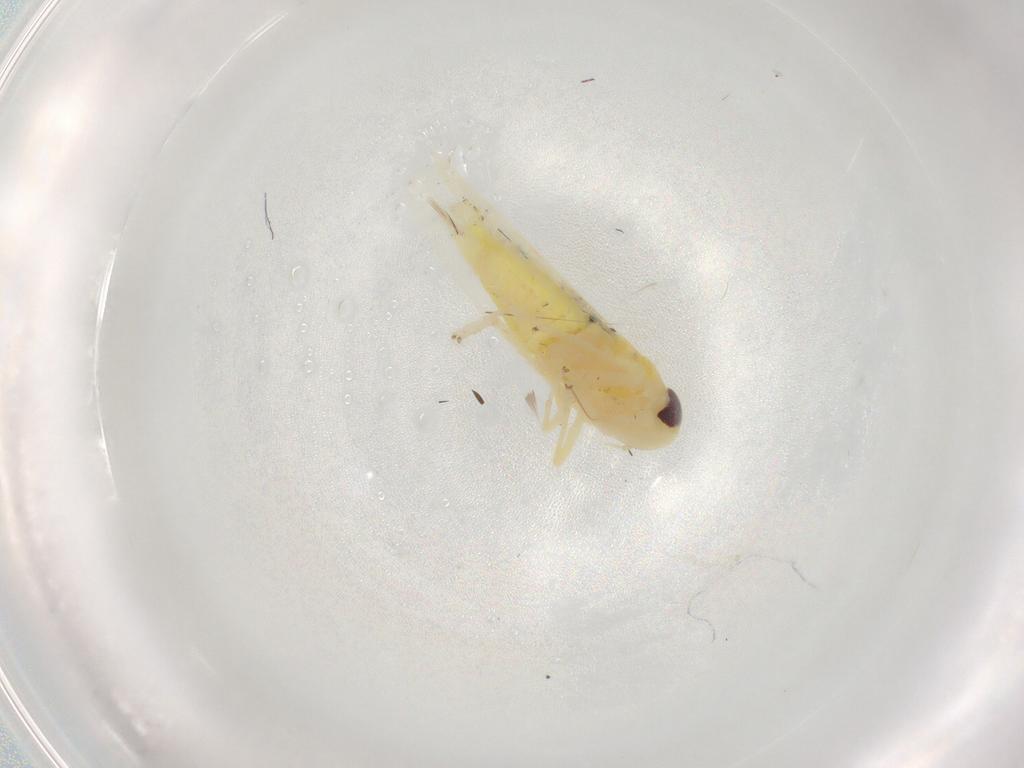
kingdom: Animalia
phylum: Arthropoda
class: Insecta
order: Hemiptera
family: Cicadellidae
